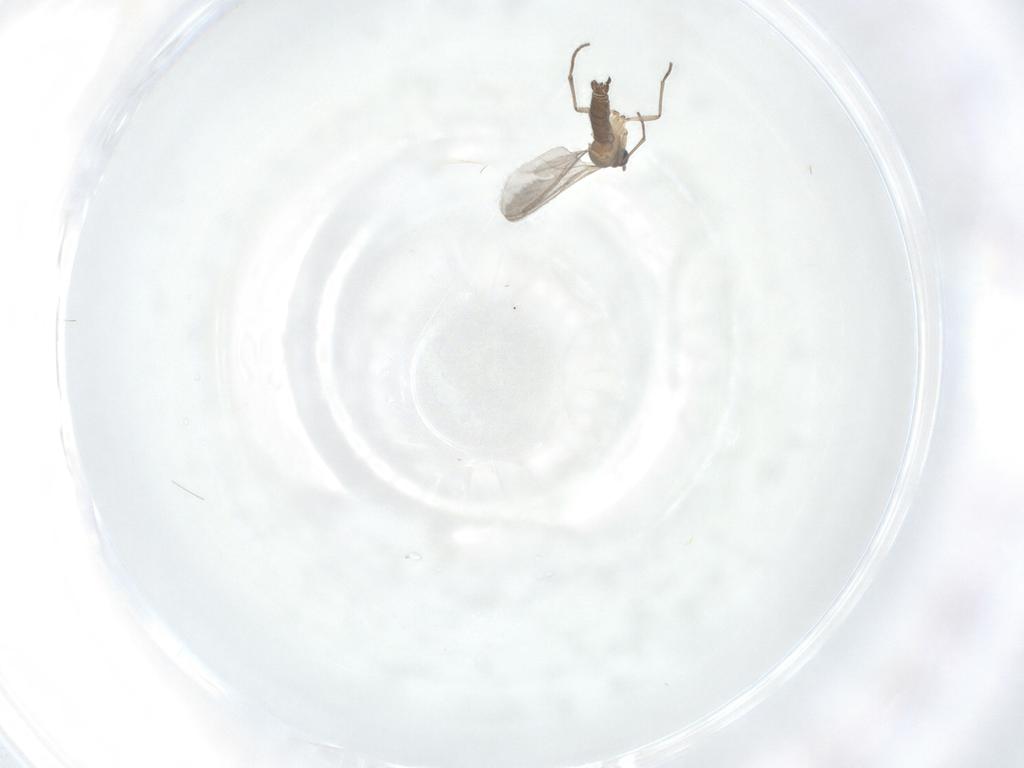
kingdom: Animalia
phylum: Arthropoda
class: Insecta
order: Diptera
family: Sciaridae
